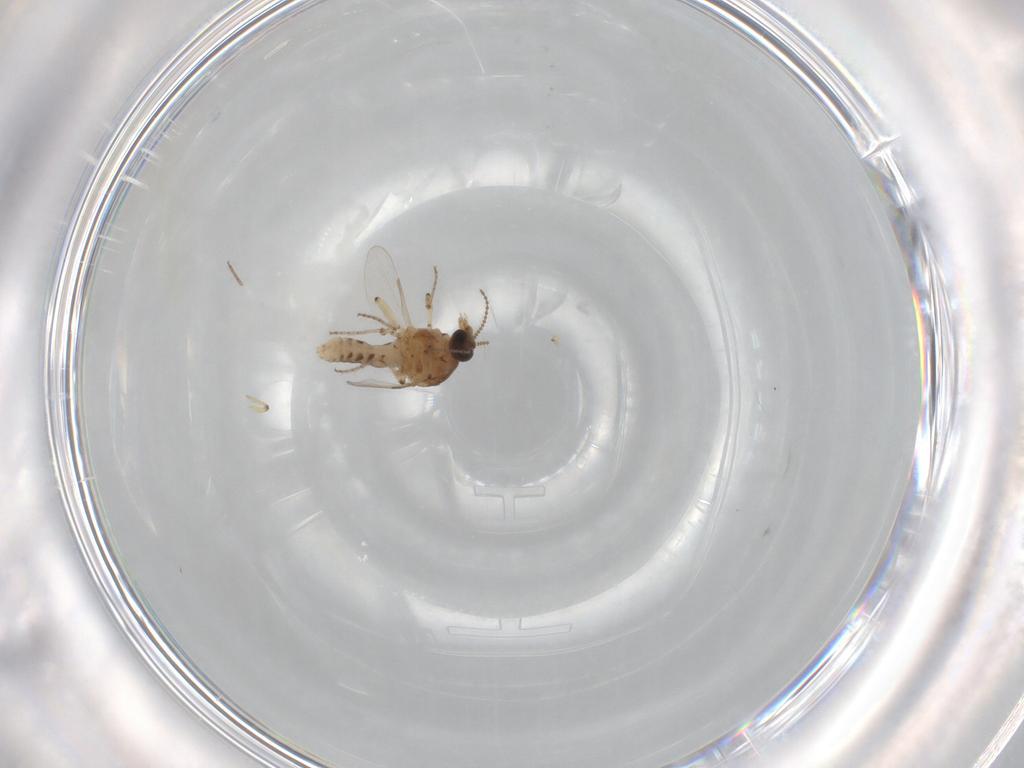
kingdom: Animalia
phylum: Arthropoda
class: Insecta
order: Diptera
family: Ceratopogonidae
